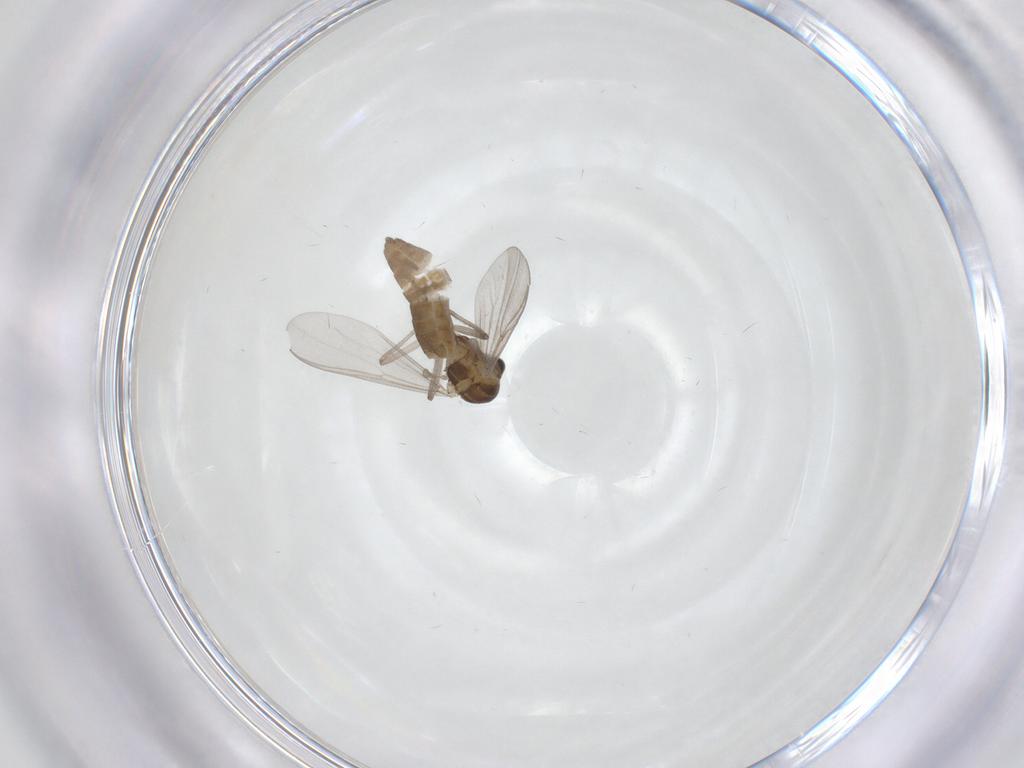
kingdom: Animalia
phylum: Arthropoda
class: Insecta
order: Diptera
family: Chironomidae
